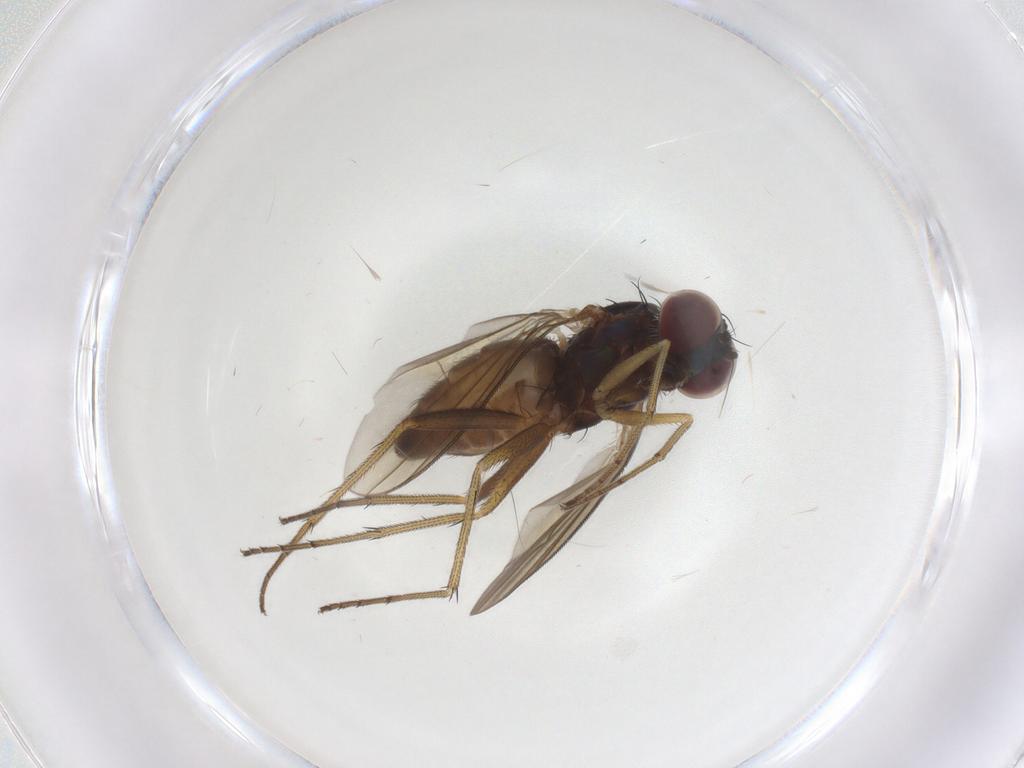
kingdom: Animalia
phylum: Arthropoda
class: Insecta
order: Diptera
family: Dolichopodidae
